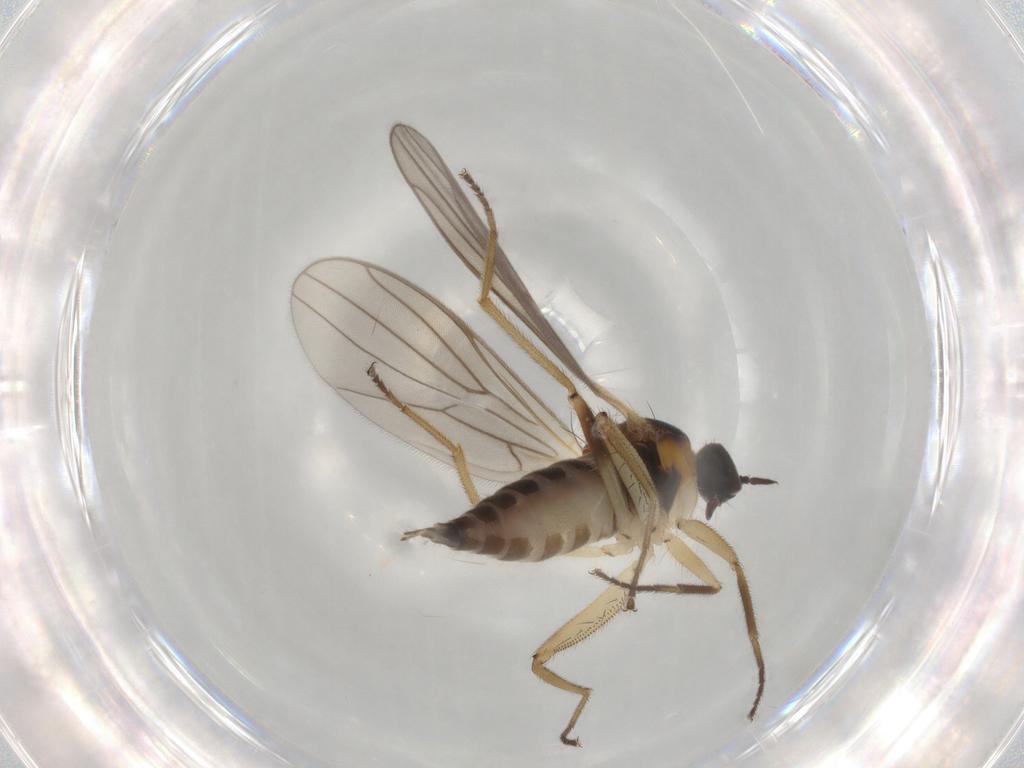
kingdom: Animalia
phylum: Arthropoda
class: Insecta
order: Diptera
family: Hybotidae
